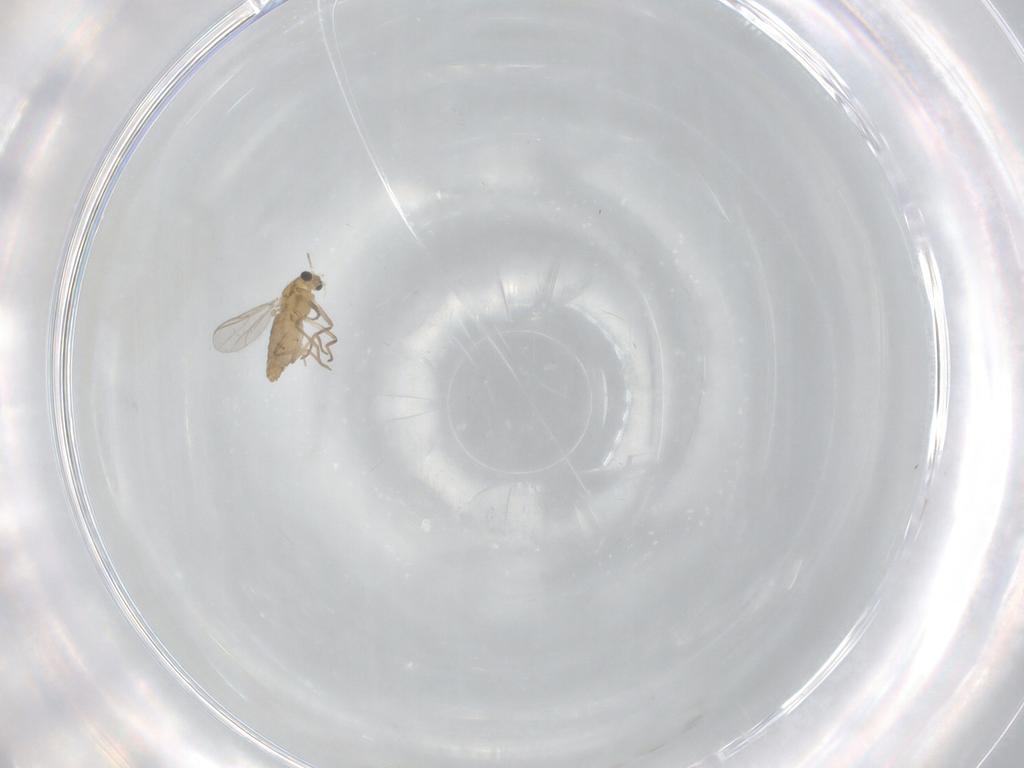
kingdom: Animalia
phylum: Arthropoda
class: Insecta
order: Diptera
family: Chironomidae
